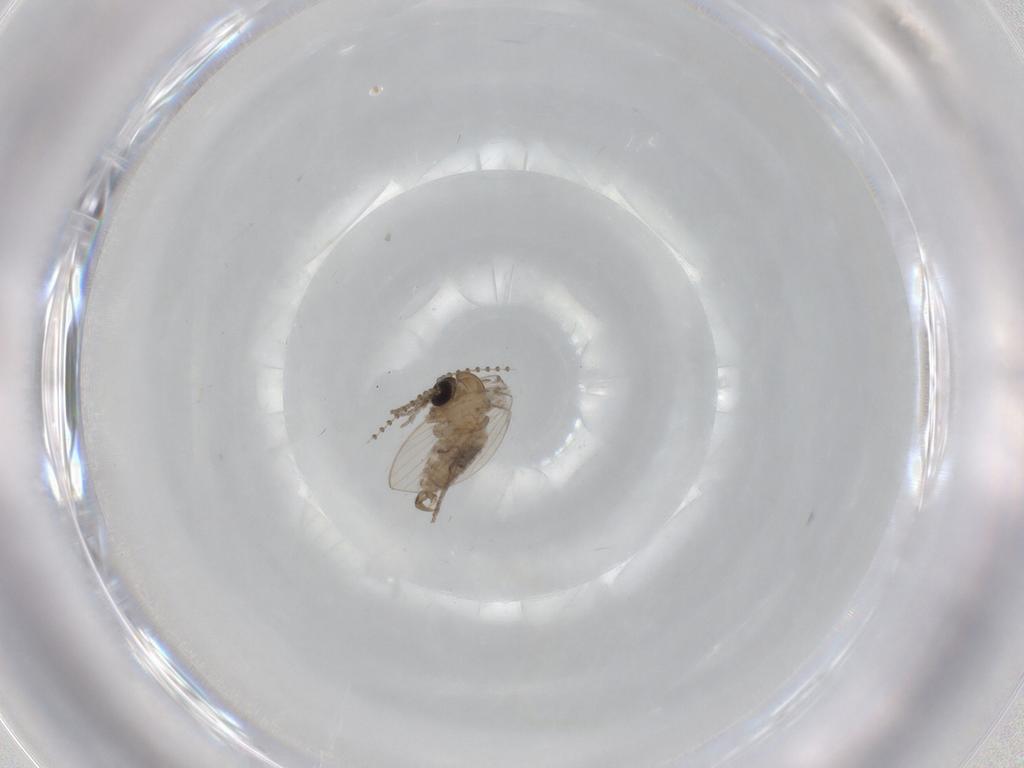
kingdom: Animalia
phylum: Arthropoda
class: Insecta
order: Diptera
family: Psychodidae
